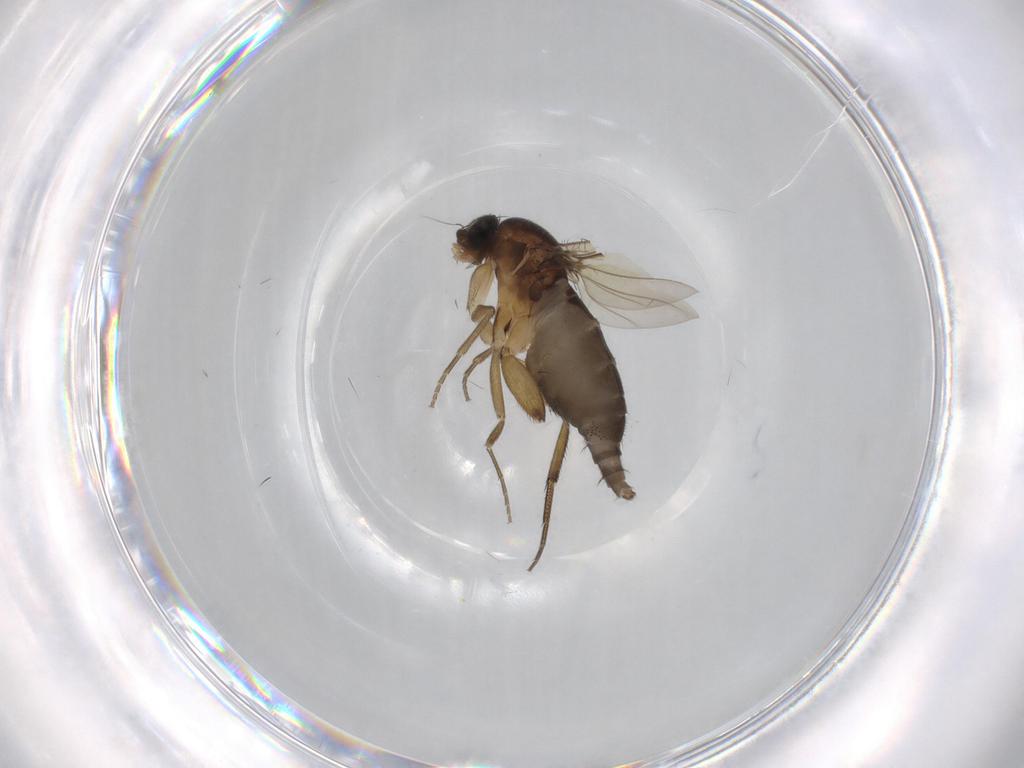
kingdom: Animalia
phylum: Arthropoda
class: Insecta
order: Diptera
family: Phoridae
